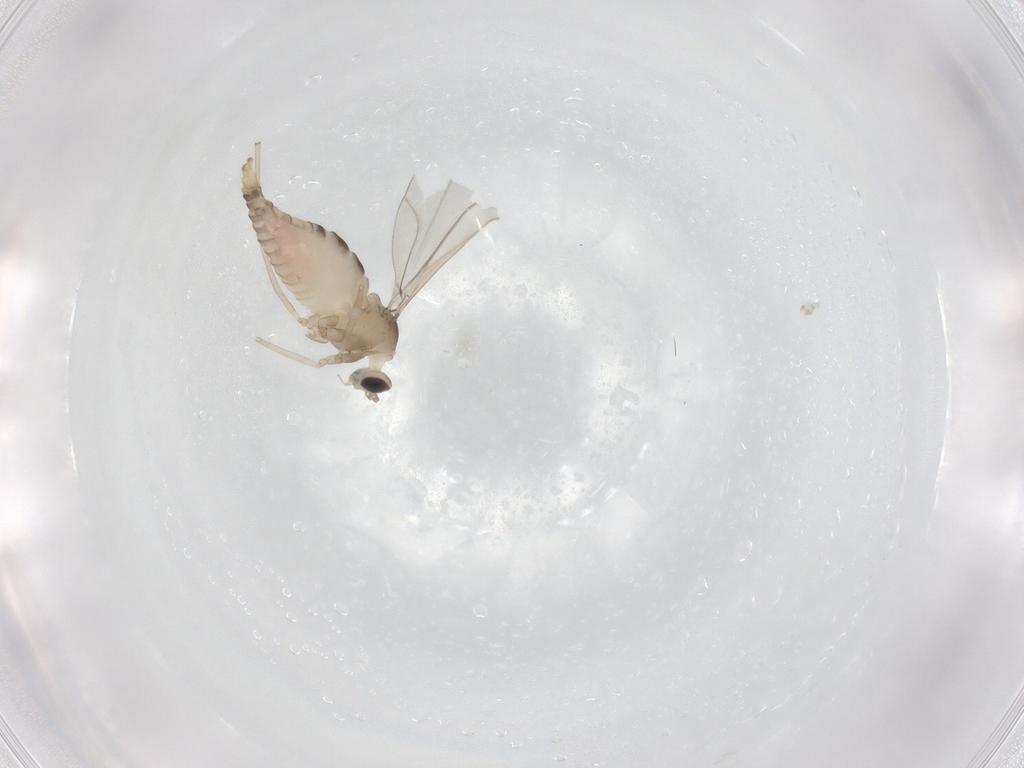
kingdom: Animalia
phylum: Arthropoda
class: Insecta
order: Diptera
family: Cecidomyiidae
